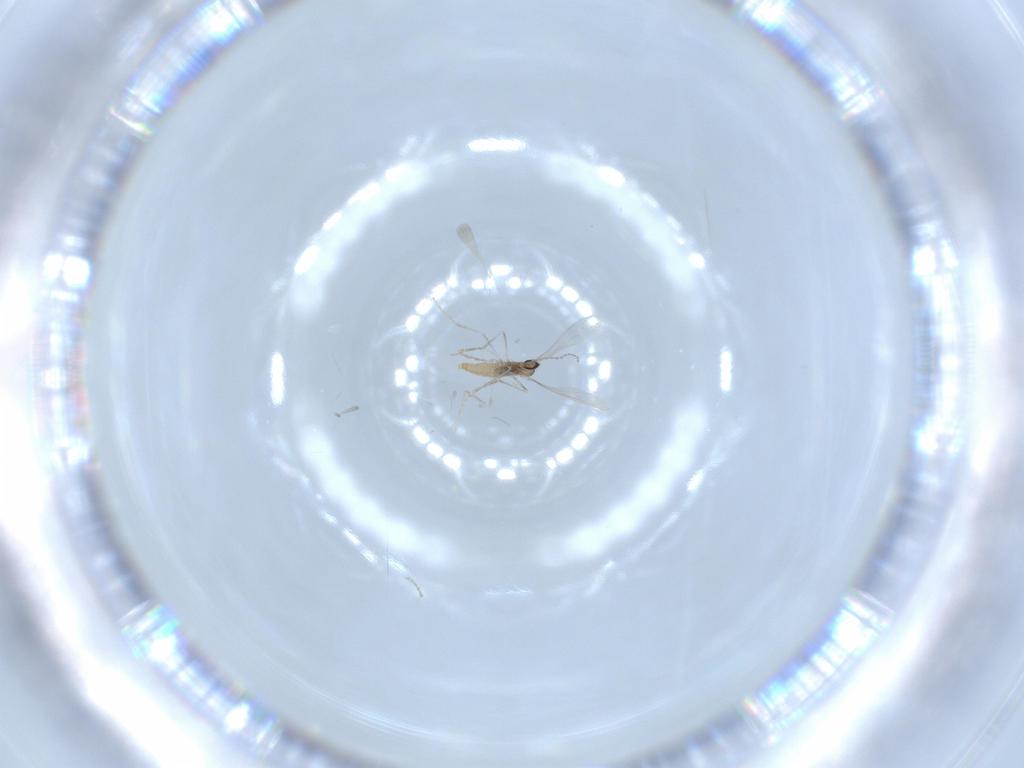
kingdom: Animalia
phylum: Arthropoda
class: Insecta
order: Diptera
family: Cecidomyiidae
